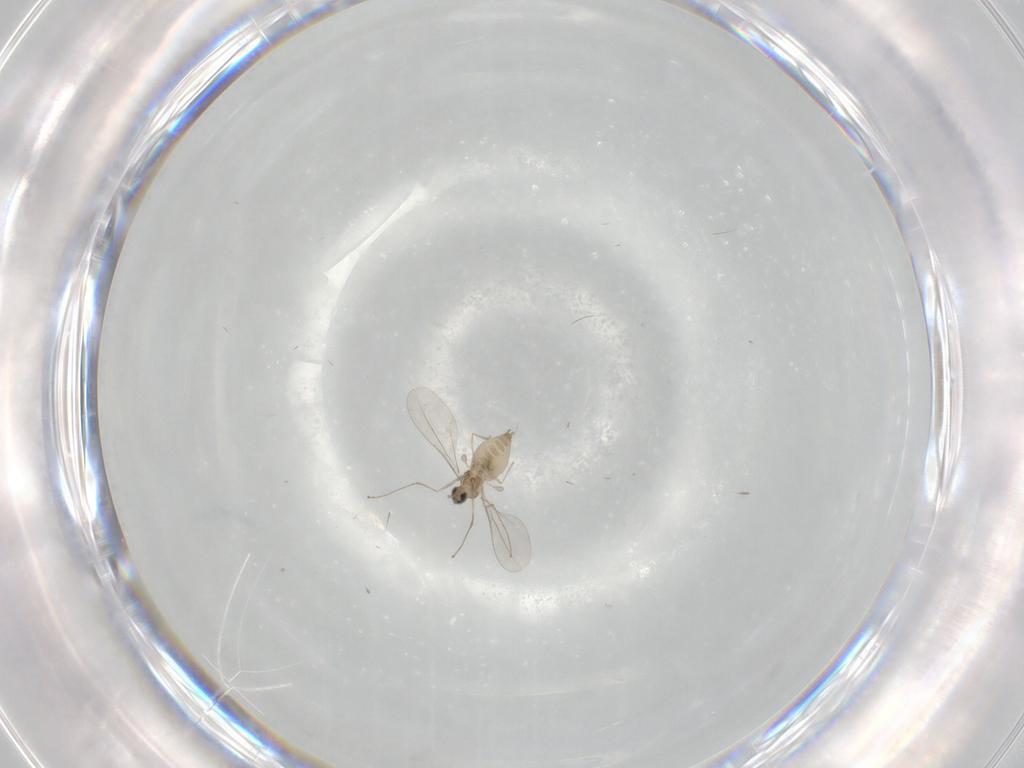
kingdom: Animalia
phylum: Arthropoda
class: Insecta
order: Diptera
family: Cecidomyiidae
